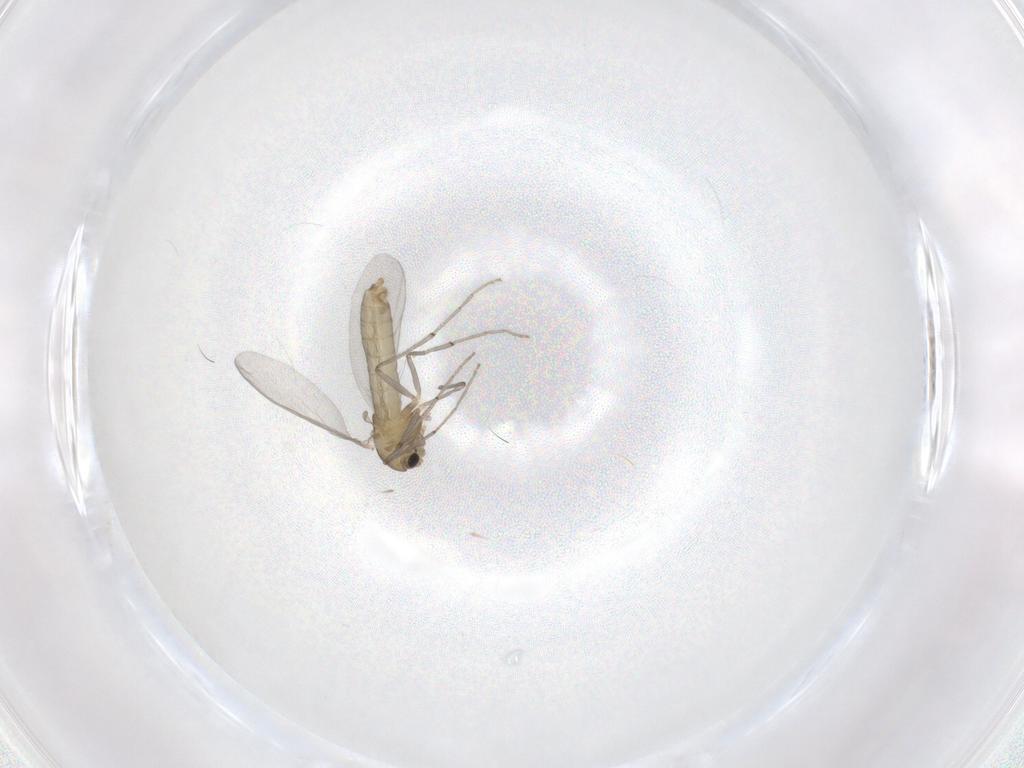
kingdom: Animalia
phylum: Arthropoda
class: Insecta
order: Diptera
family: Chironomidae
